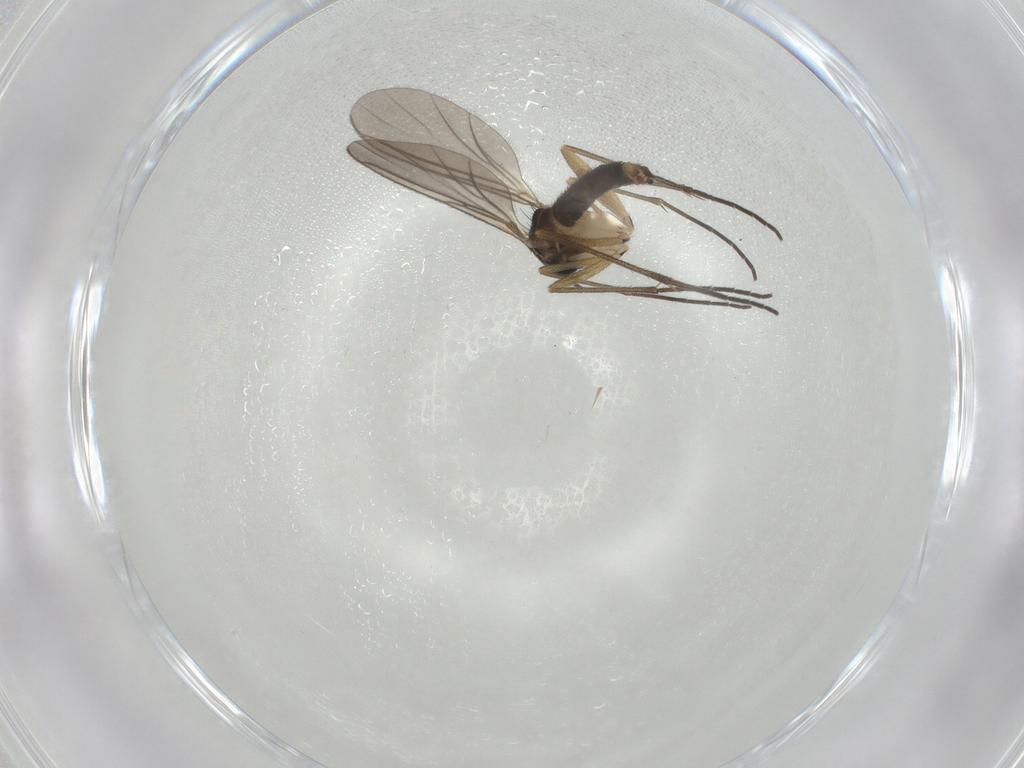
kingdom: Animalia
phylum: Arthropoda
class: Insecta
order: Diptera
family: Sciaridae
